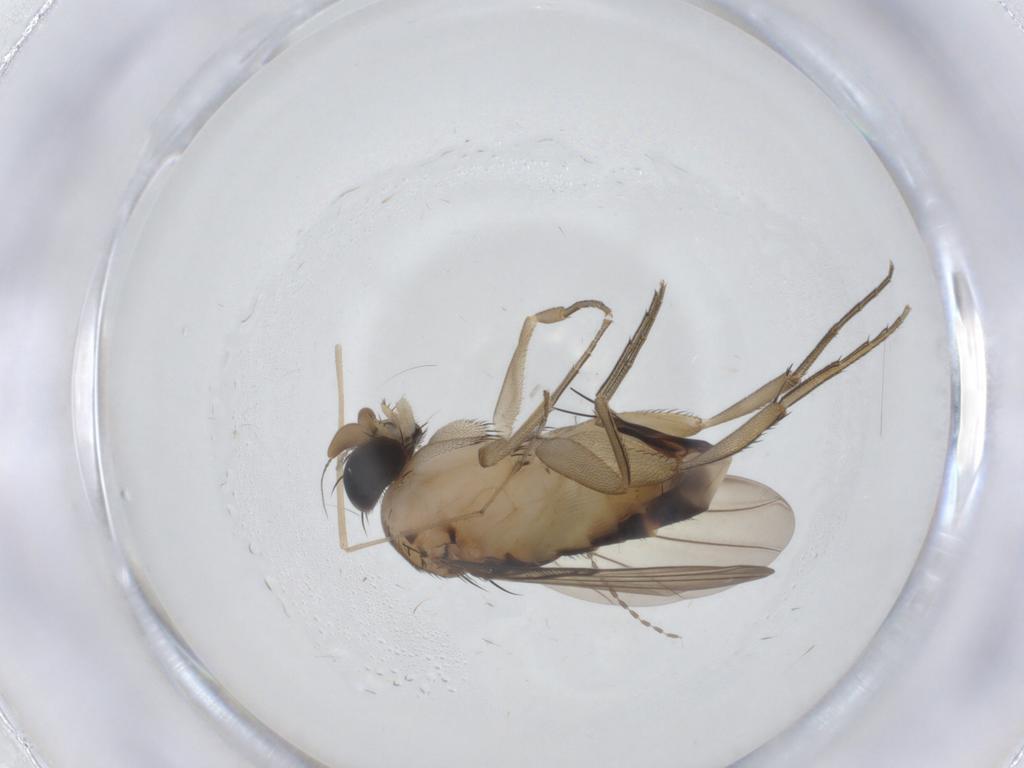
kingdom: Animalia
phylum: Arthropoda
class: Insecta
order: Diptera
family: Limoniidae
